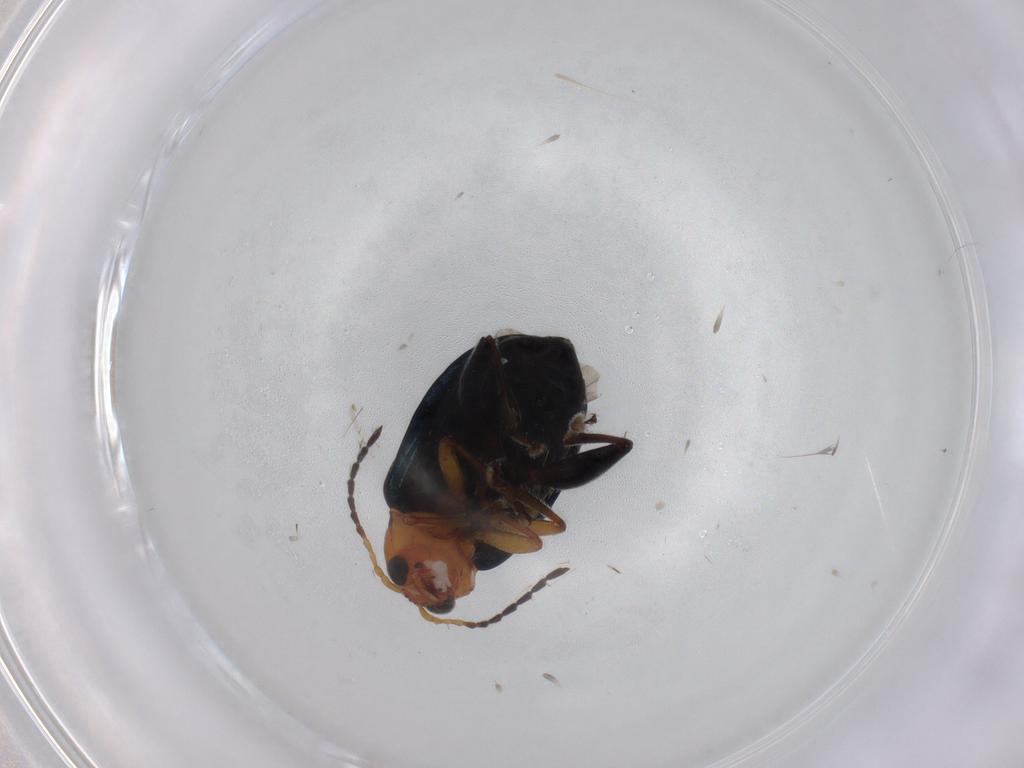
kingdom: Animalia
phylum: Arthropoda
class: Insecta
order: Coleoptera
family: Chrysomelidae
